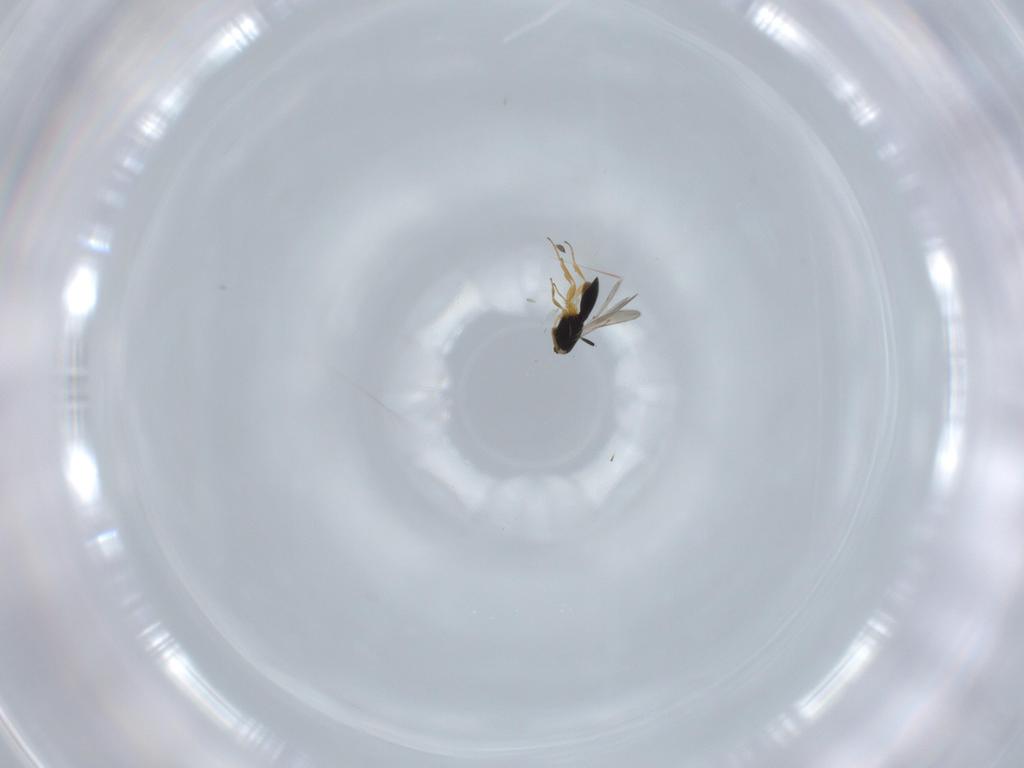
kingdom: Animalia
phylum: Arthropoda
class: Insecta
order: Hymenoptera
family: Scelionidae
